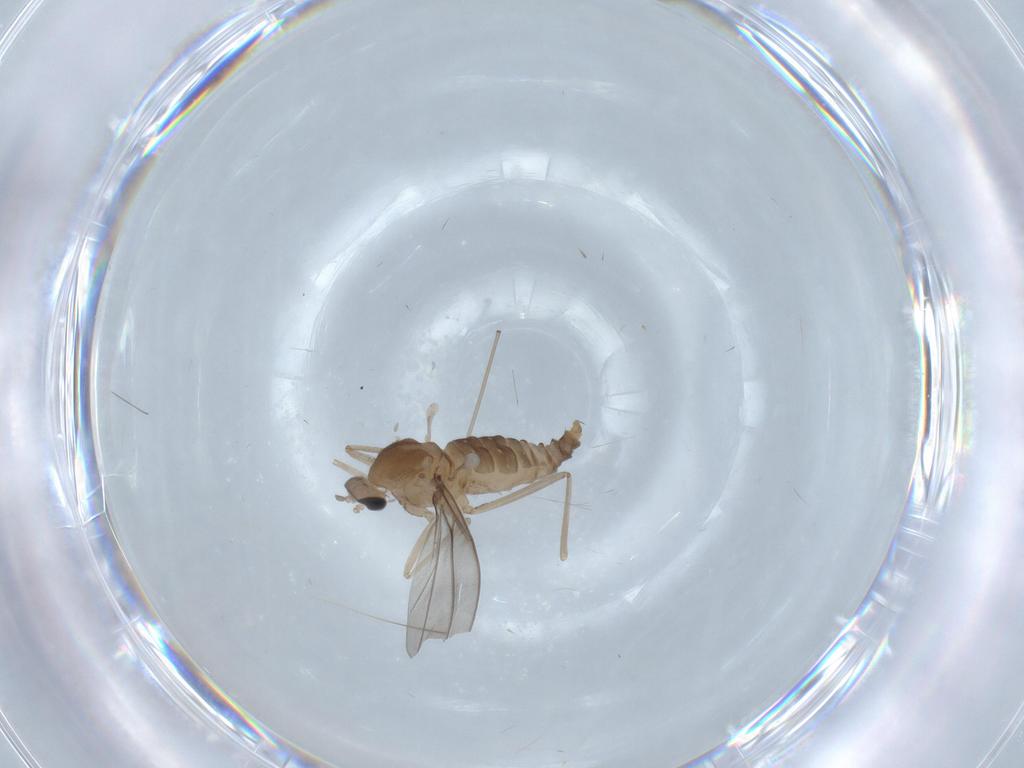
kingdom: Animalia
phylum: Arthropoda
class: Insecta
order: Diptera
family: Cecidomyiidae
